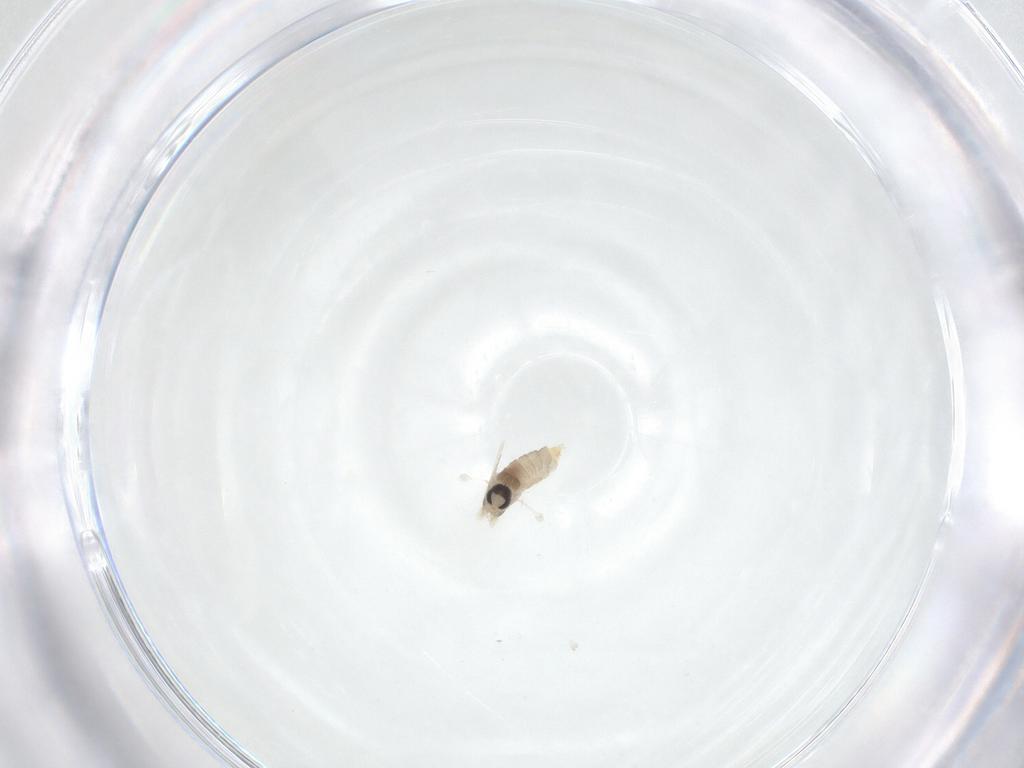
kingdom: Animalia
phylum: Arthropoda
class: Insecta
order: Diptera
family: Cecidomyiidae
